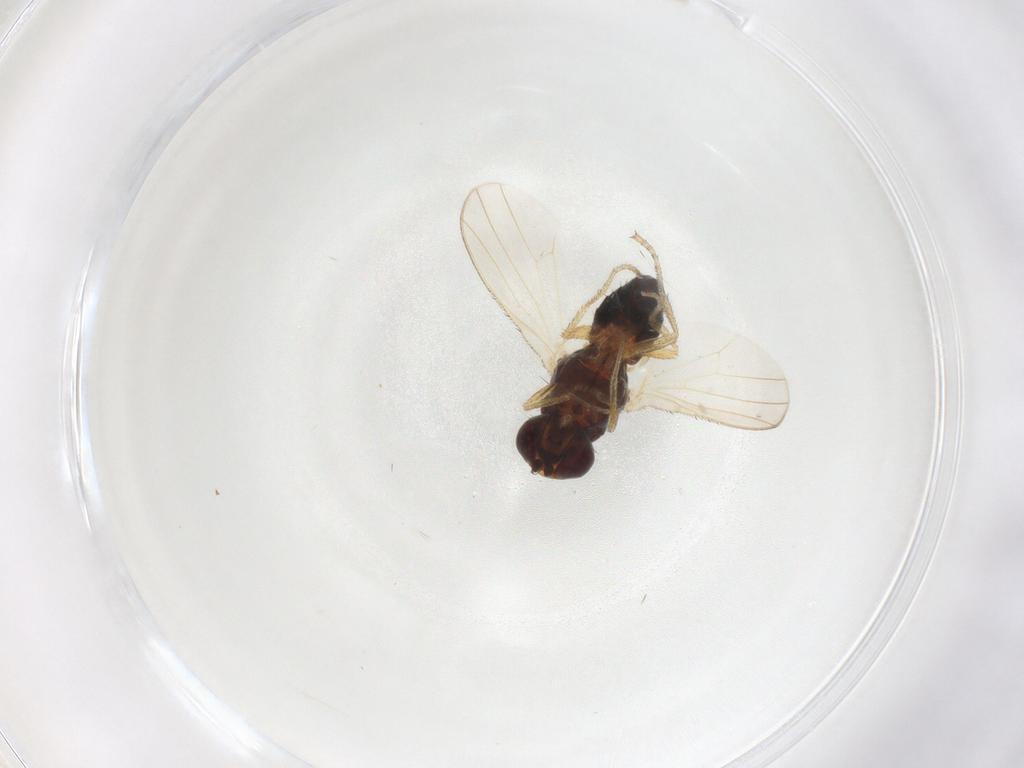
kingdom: Animalia
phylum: Arthropoda
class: Insecta
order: Diptera
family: Heleomyzidae
